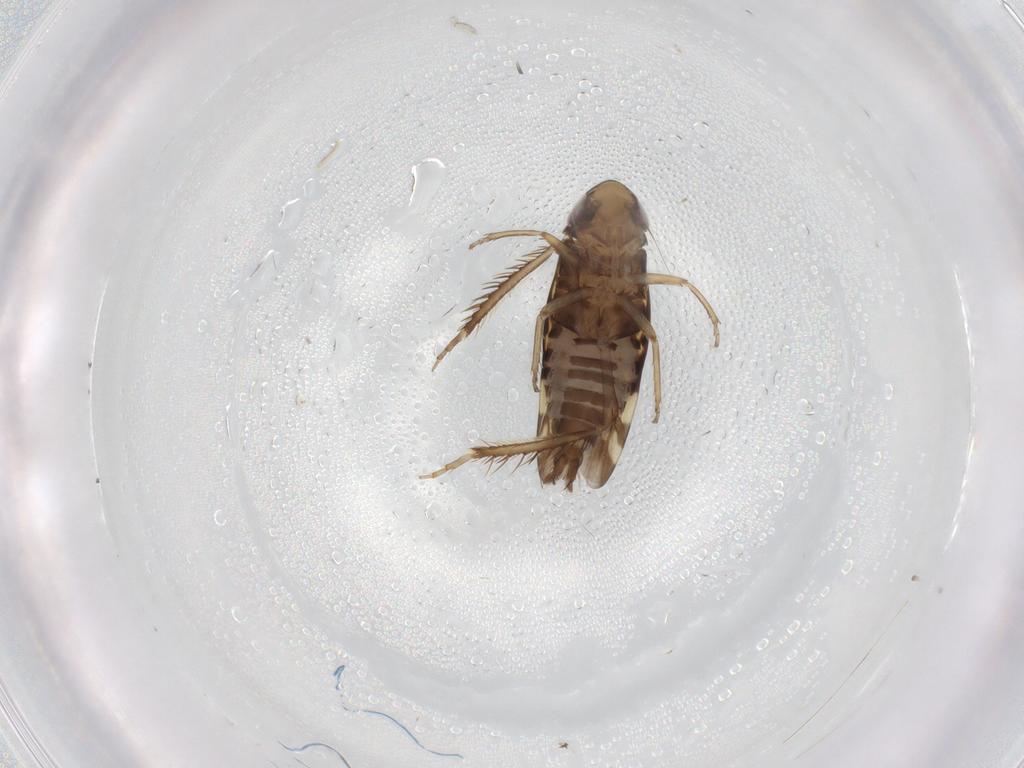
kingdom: Animalia
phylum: Arthropoda
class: Insecta
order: Hemiptera
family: Cicadellidae
